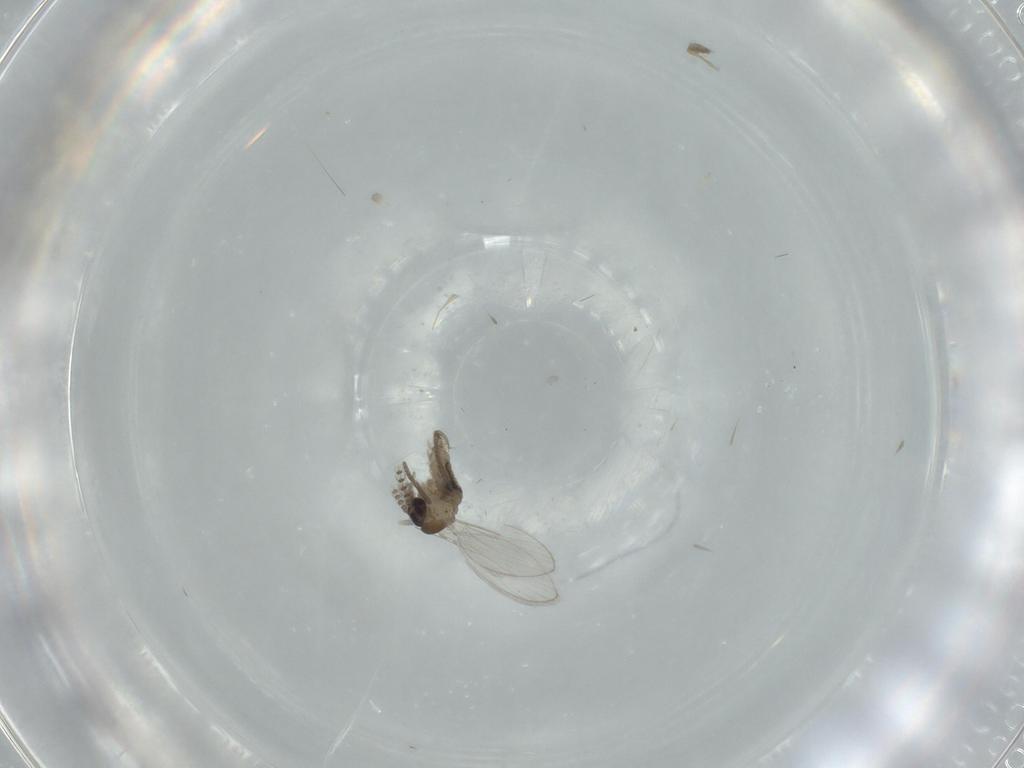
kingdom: Animalia
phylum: Arthropoda
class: Insecta
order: Diptera
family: Psychodidae
